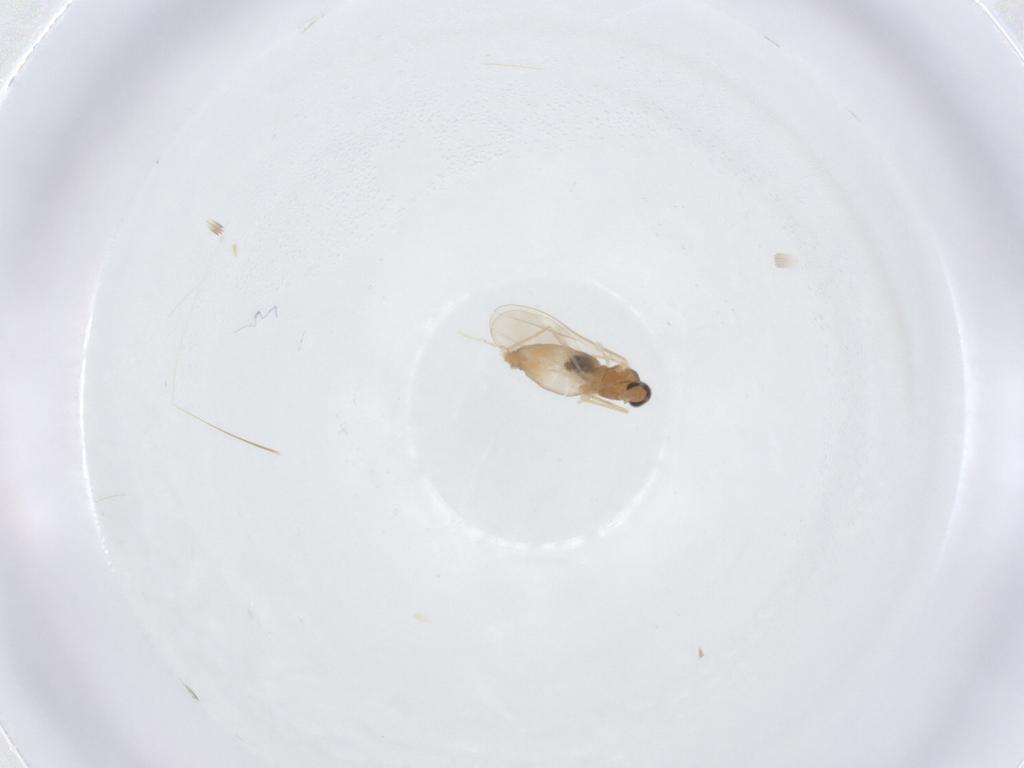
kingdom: Animalia
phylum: Arthropoda
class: Insecta
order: Diptera
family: Cecidomyiidae
